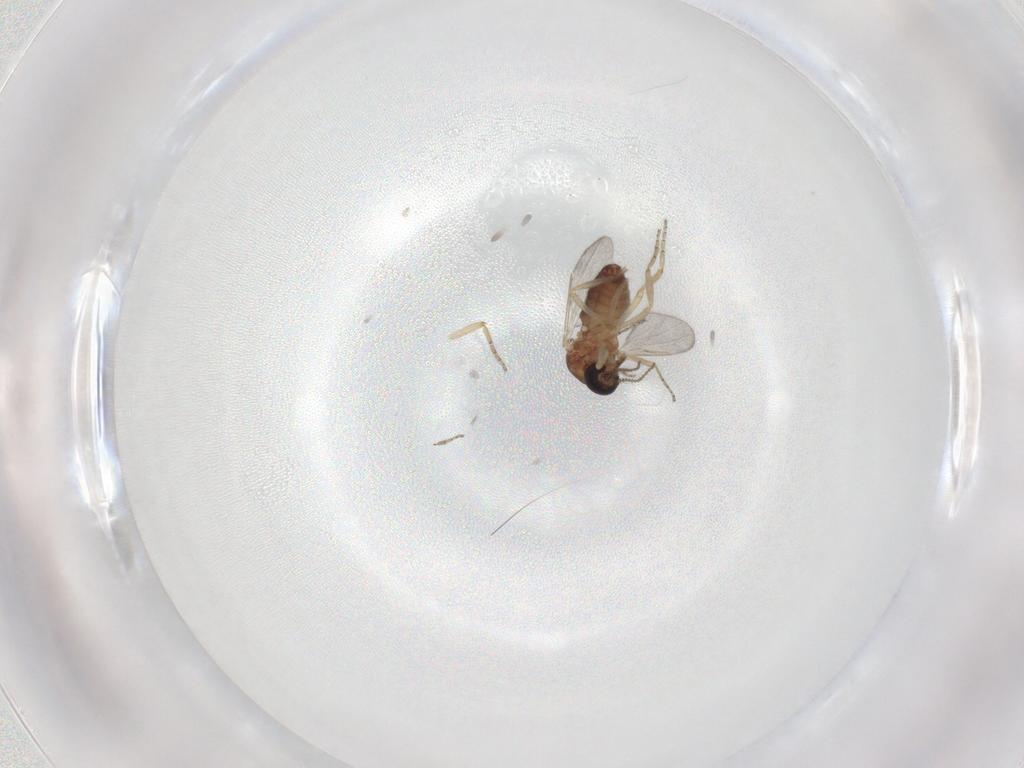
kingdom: Animalia
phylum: Arthropoda
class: Insecta
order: Diptera
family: Ceratopogonidae
